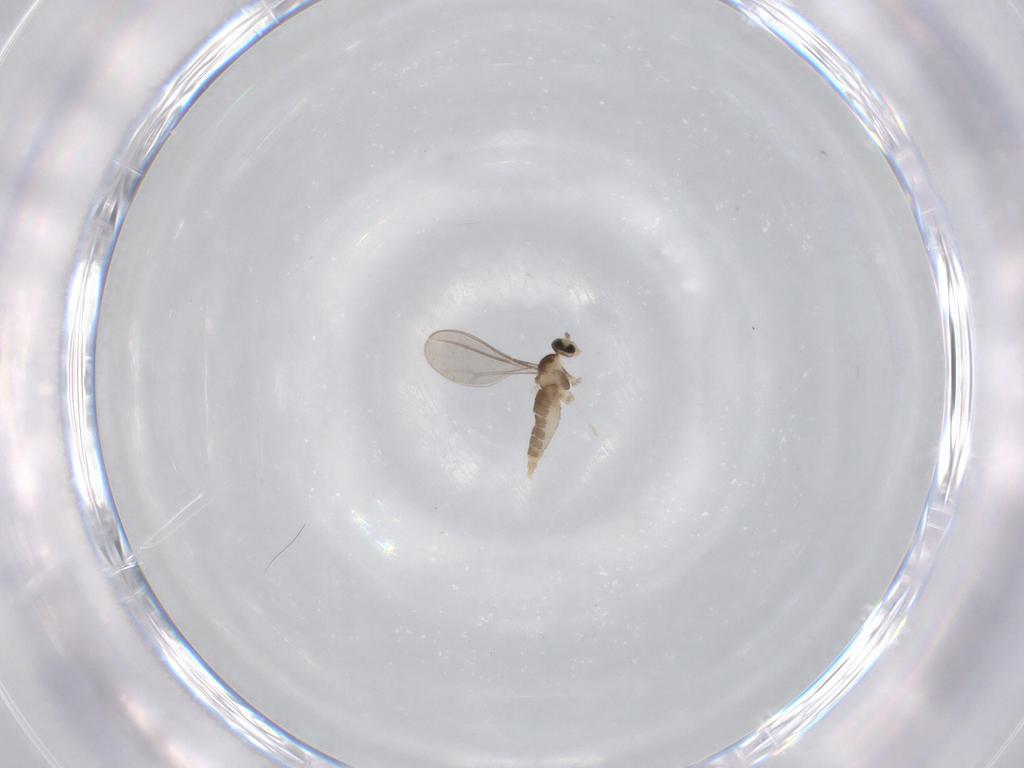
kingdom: Animalia
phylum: Arthropoda
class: Insecta
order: Diptera
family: Cecidomyiidae
